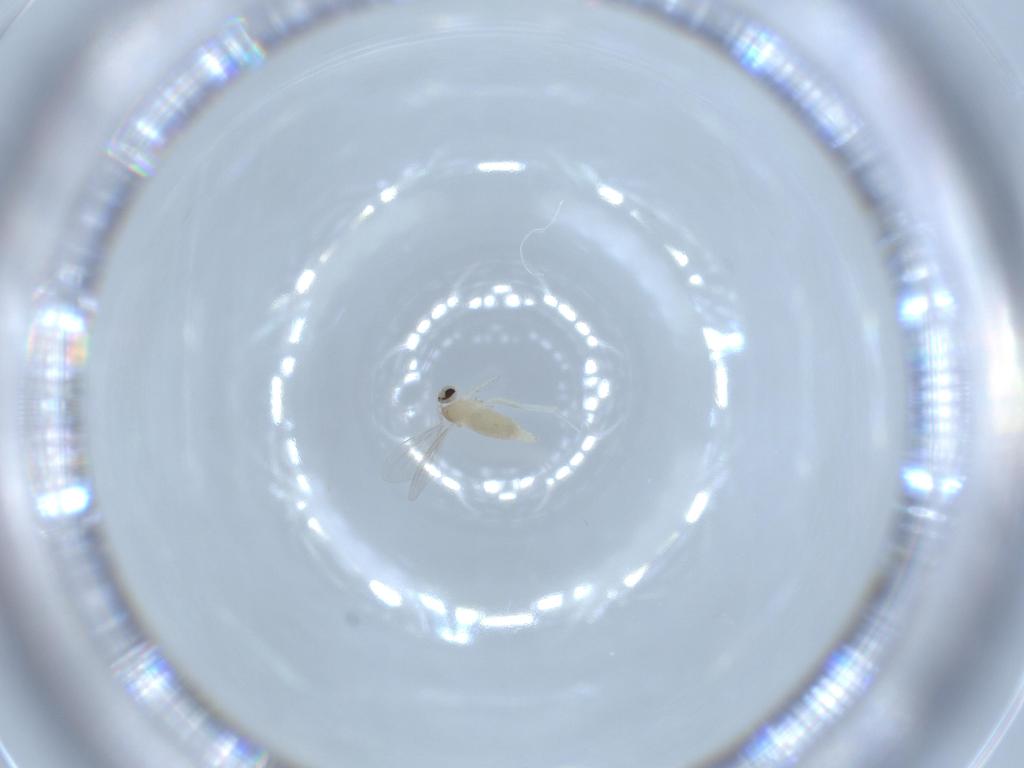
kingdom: Animalia
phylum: Arthropoda
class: Insecta
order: Diptera
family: Cecidomyiidae
